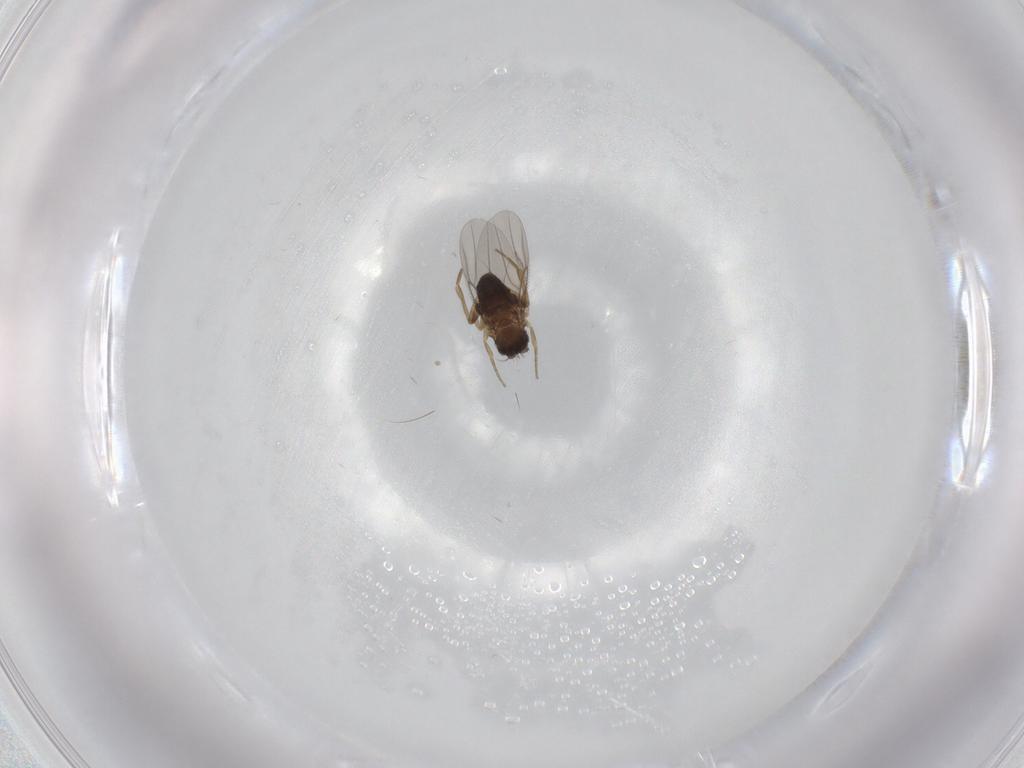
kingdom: Animalia
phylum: Arthropoda
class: Insecta
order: Diptera
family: Cecidomyiidae
